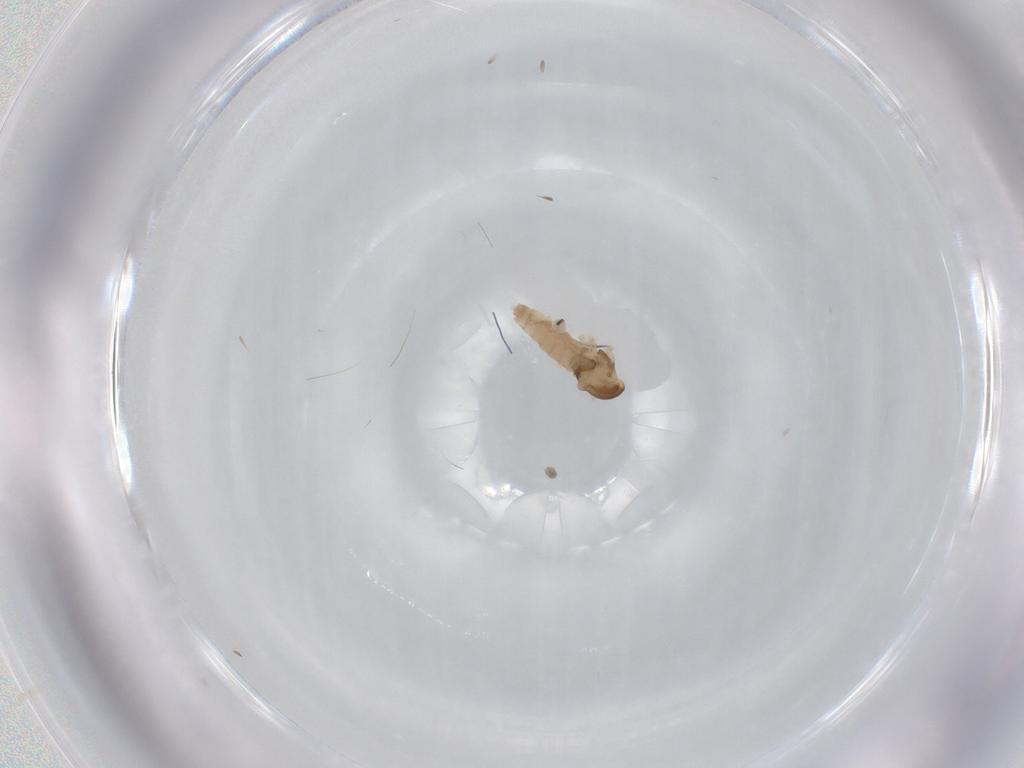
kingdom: Animalia
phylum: Arthropoda
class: Insecta
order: Diptera
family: Cecidomyiidae
